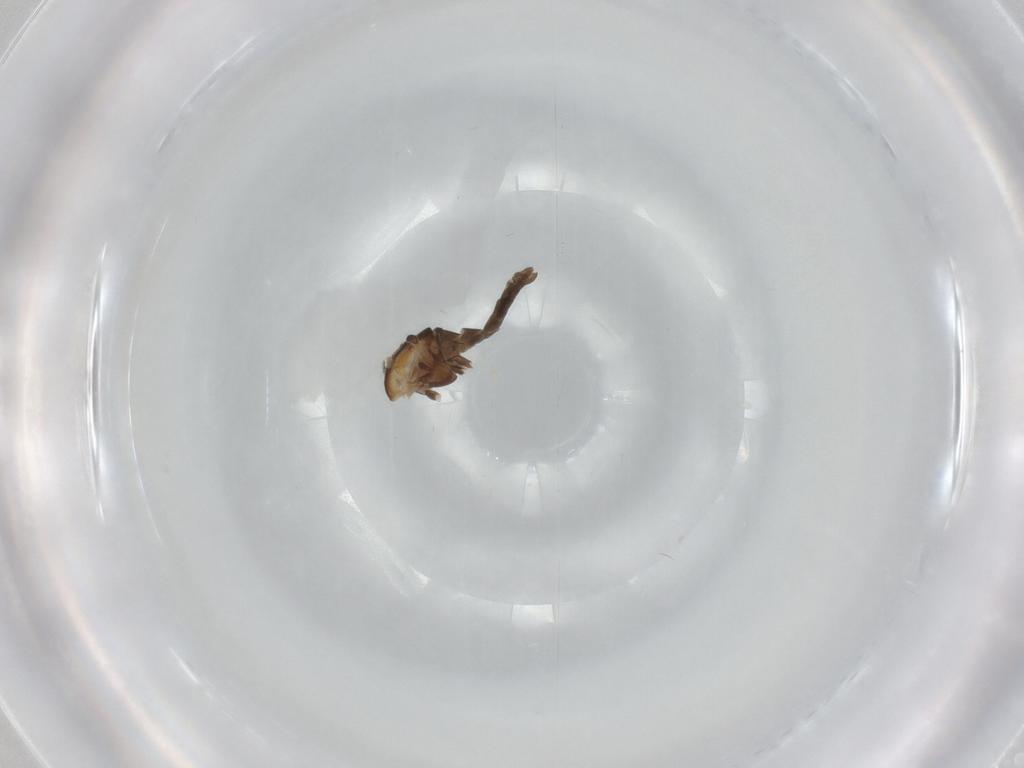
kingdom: Animalia
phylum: Arthropoda
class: Insecta
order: Diptera
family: Chironomidae
